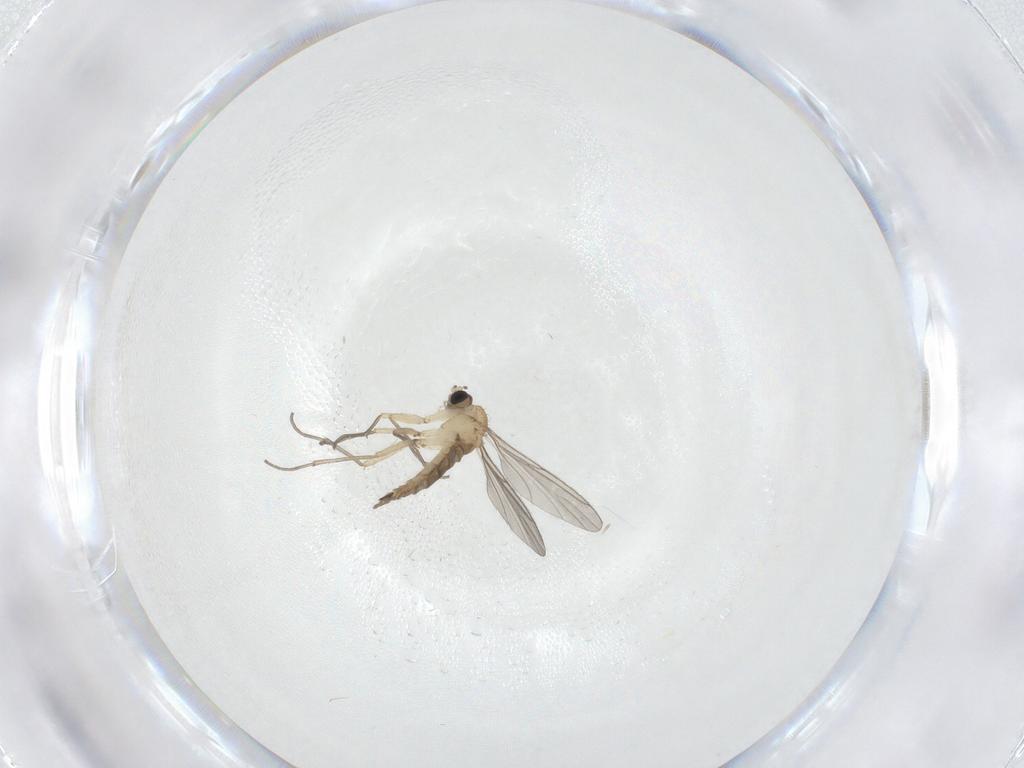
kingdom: Animalia
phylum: Arthropoda
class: Insecta
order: Diptera
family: Sciaridae
